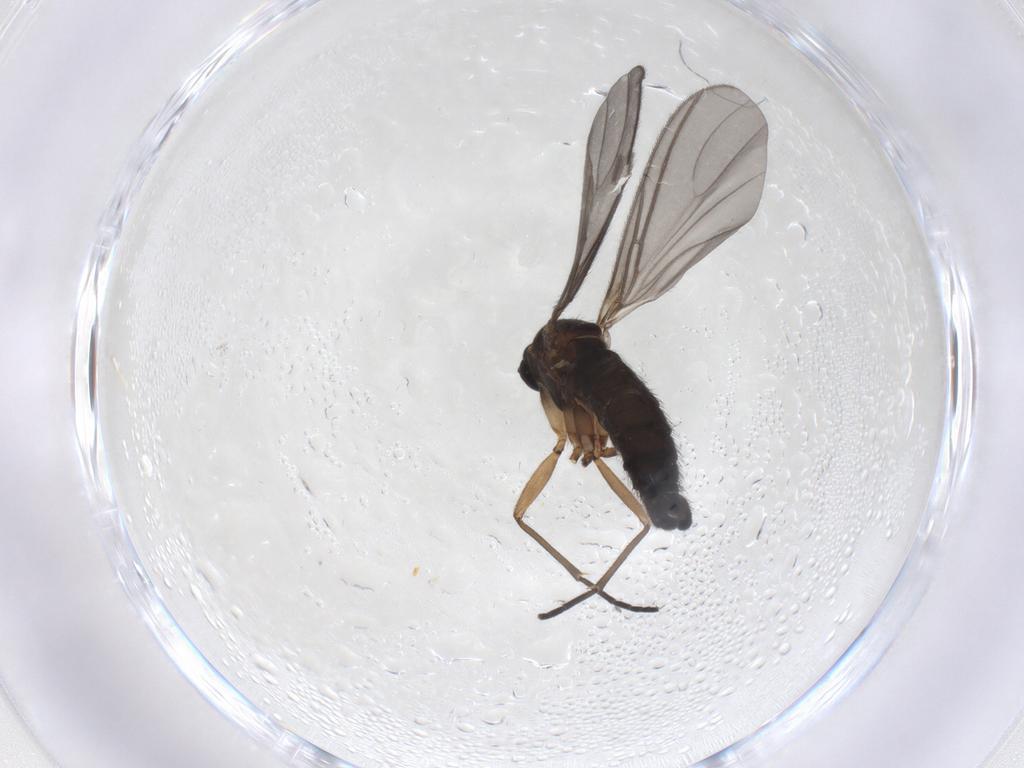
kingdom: Animalia
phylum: Arthropoda
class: Insecta
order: Diptera
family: Sciaridae
